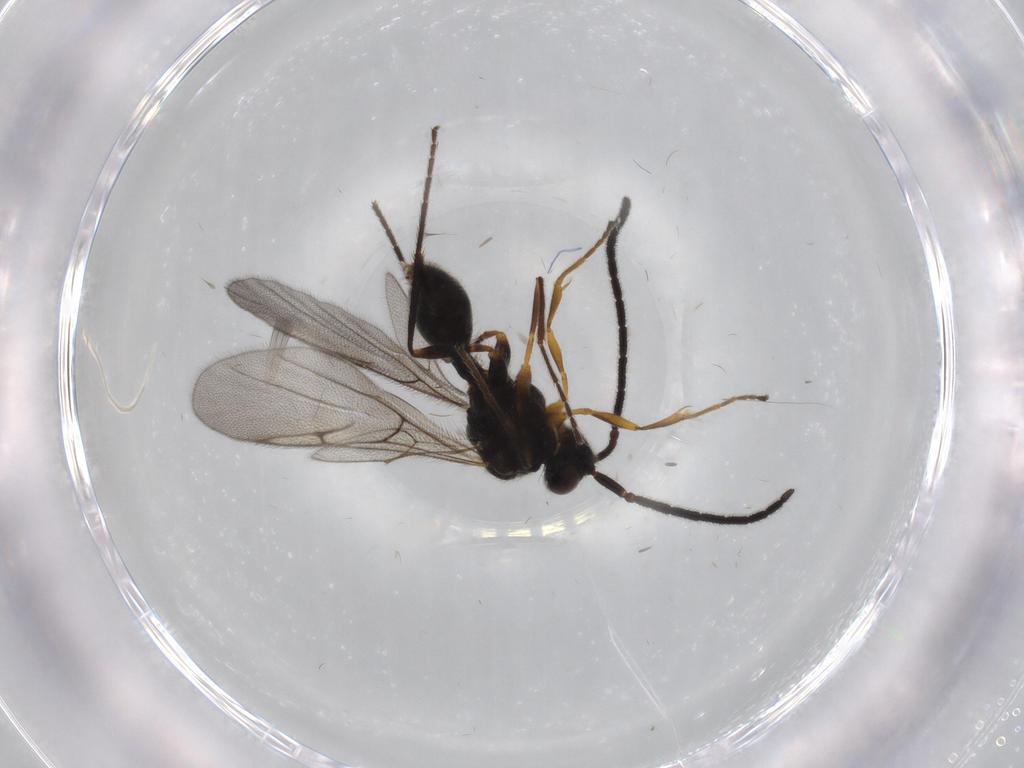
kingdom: Animalia
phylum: Arthropoda
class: Insecta
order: Hymenoptera
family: Diapriidae
